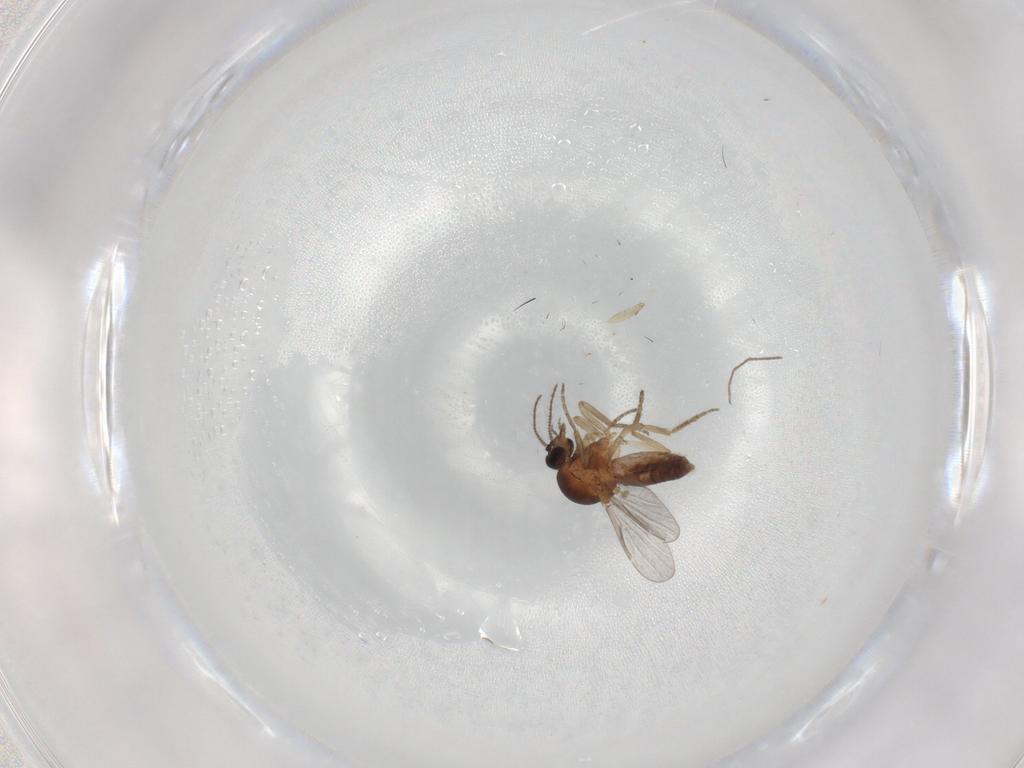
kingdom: Animalia
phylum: Arthropoda
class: Insecta
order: Diptera
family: Ceratopogonidae
